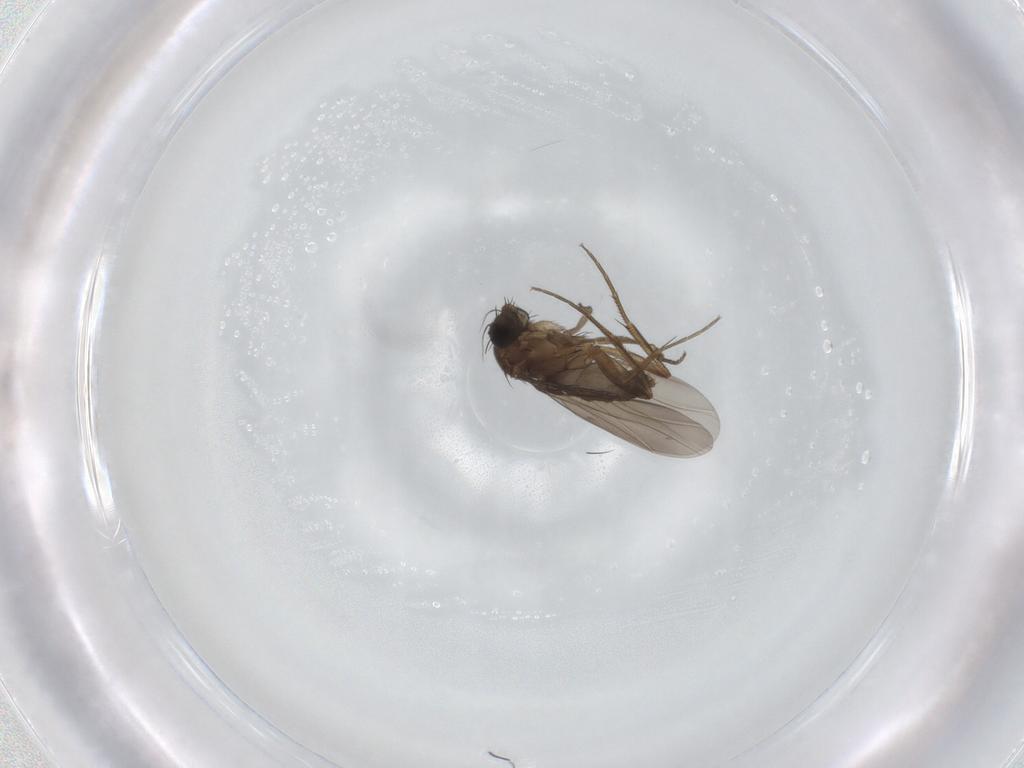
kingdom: Animalia
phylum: Arthropoda
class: Insecta
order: Diptera
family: Phoridae
